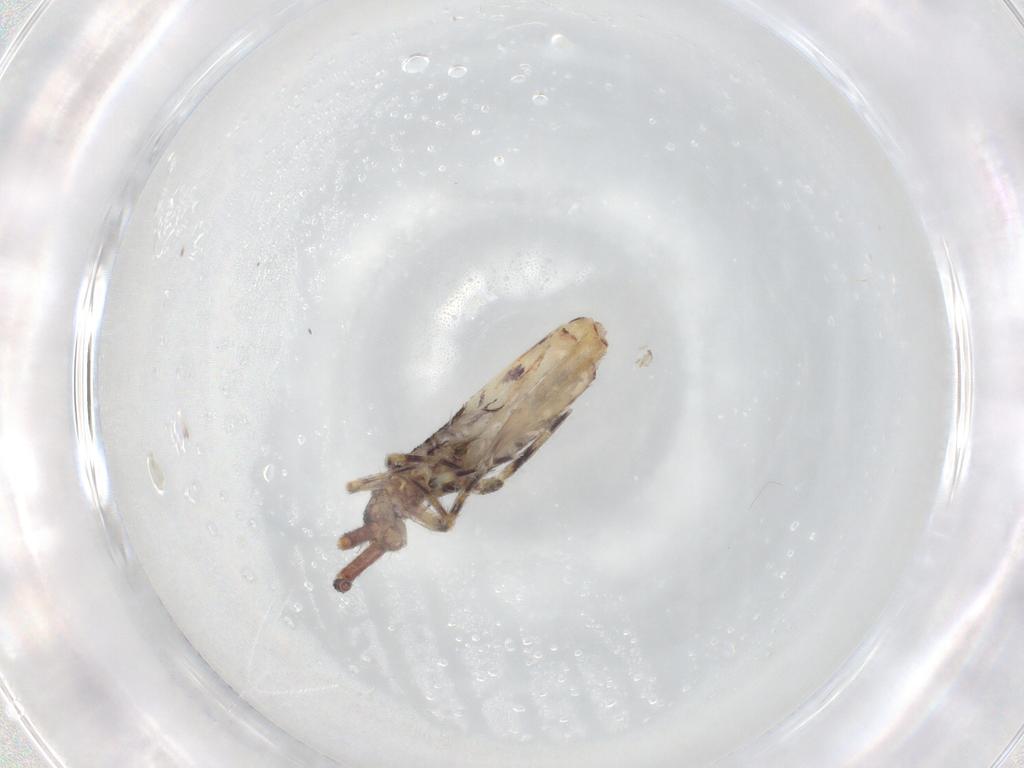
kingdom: Animalia
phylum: Arthropoda
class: Collembola
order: Entomobryomorpha
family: Entomobryidae
